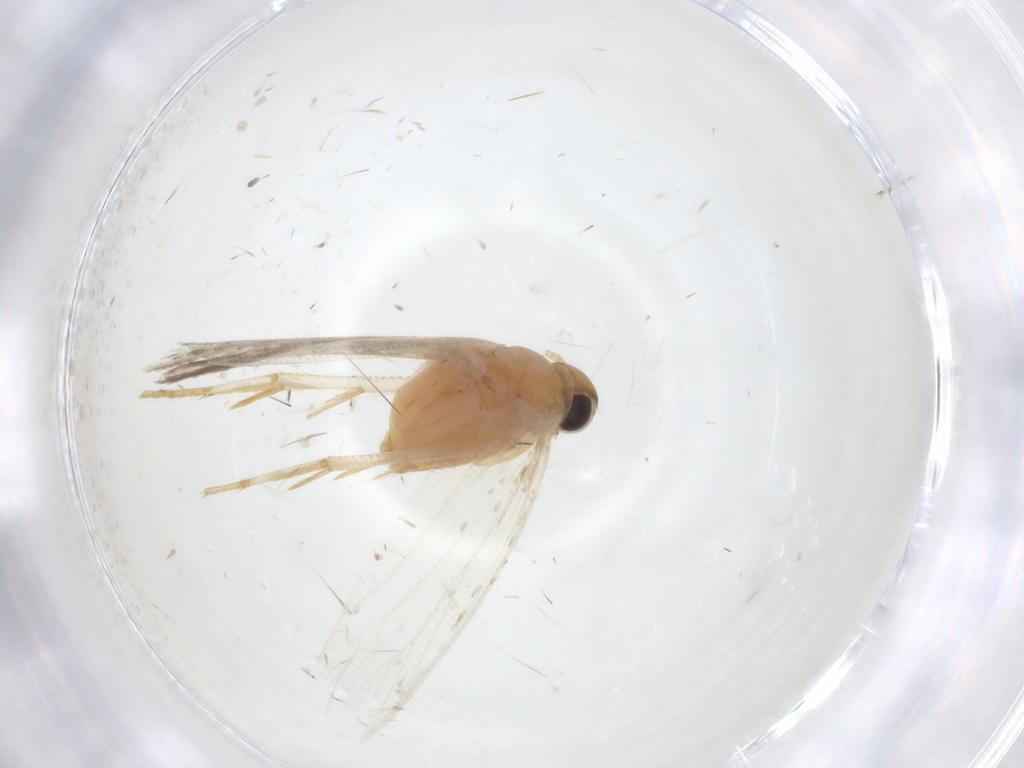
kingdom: Animalia
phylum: Arthropoda
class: Insecta
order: Lepidoptera
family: Gelechiidae
